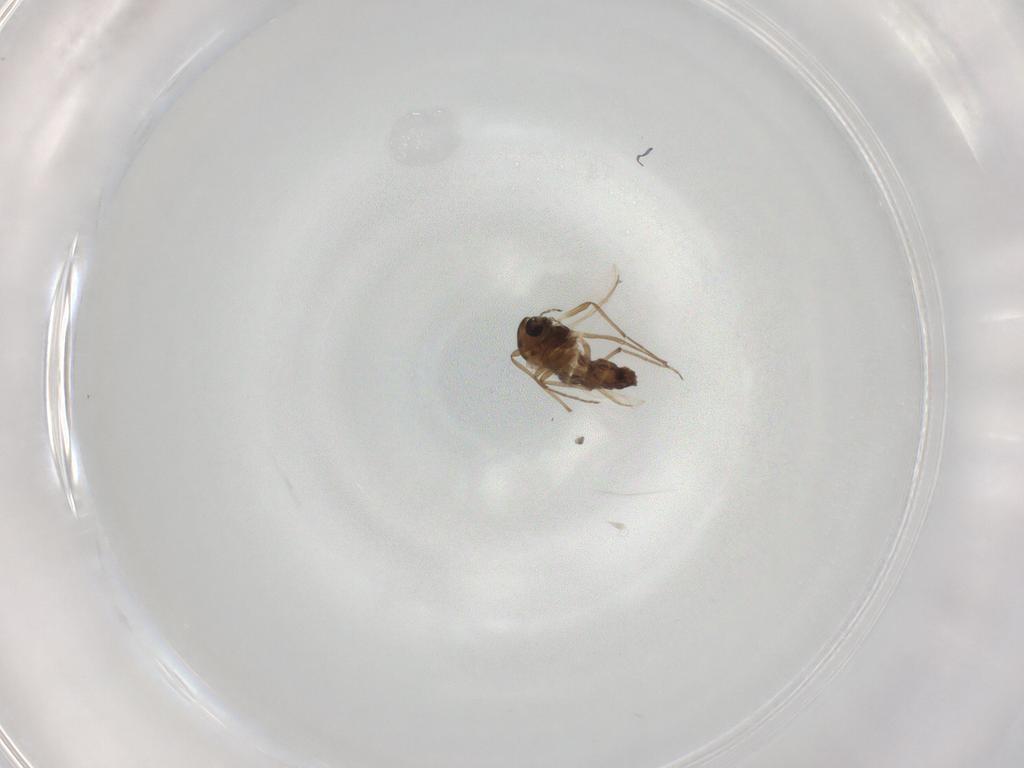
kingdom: Animalia
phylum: Arthropoda
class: Insecta
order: Diptera
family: Chironomidae
